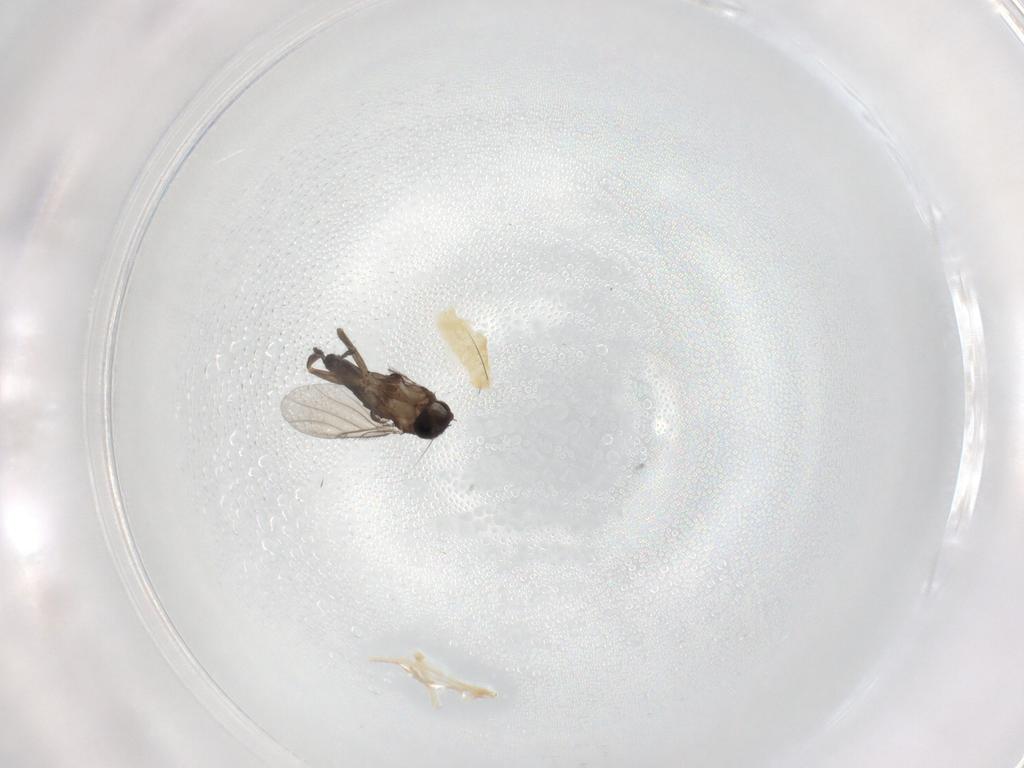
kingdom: Animalia
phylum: Arthropoda
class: Insecta
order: Diptera
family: Phoridae
